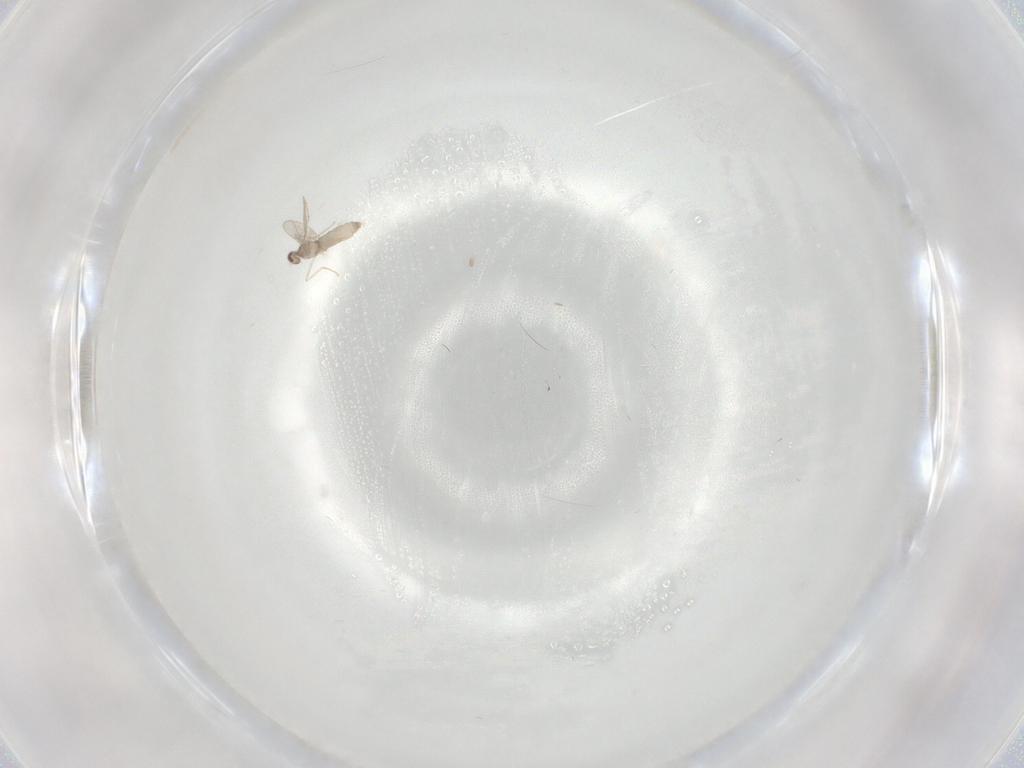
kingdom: Animalia
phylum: Arthropoda
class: Insecta
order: Diptera
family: Cecidomyiidae
